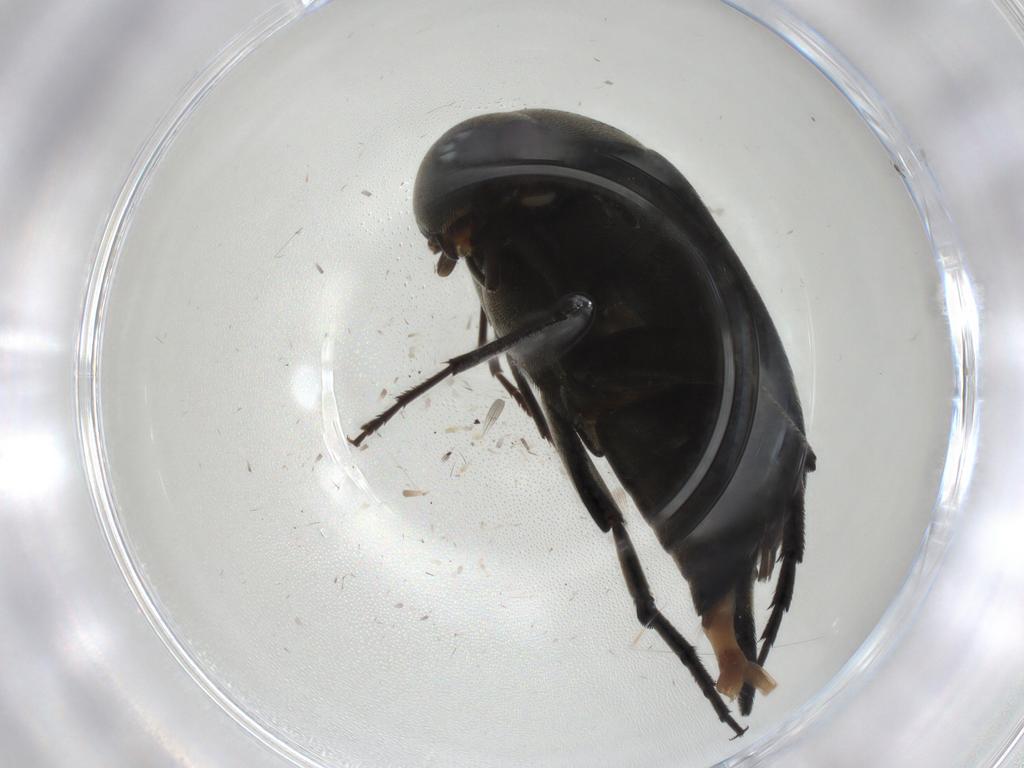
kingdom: Animalia
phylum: Arthropoda
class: Insecta
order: Coleoptera
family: Mordellidae
